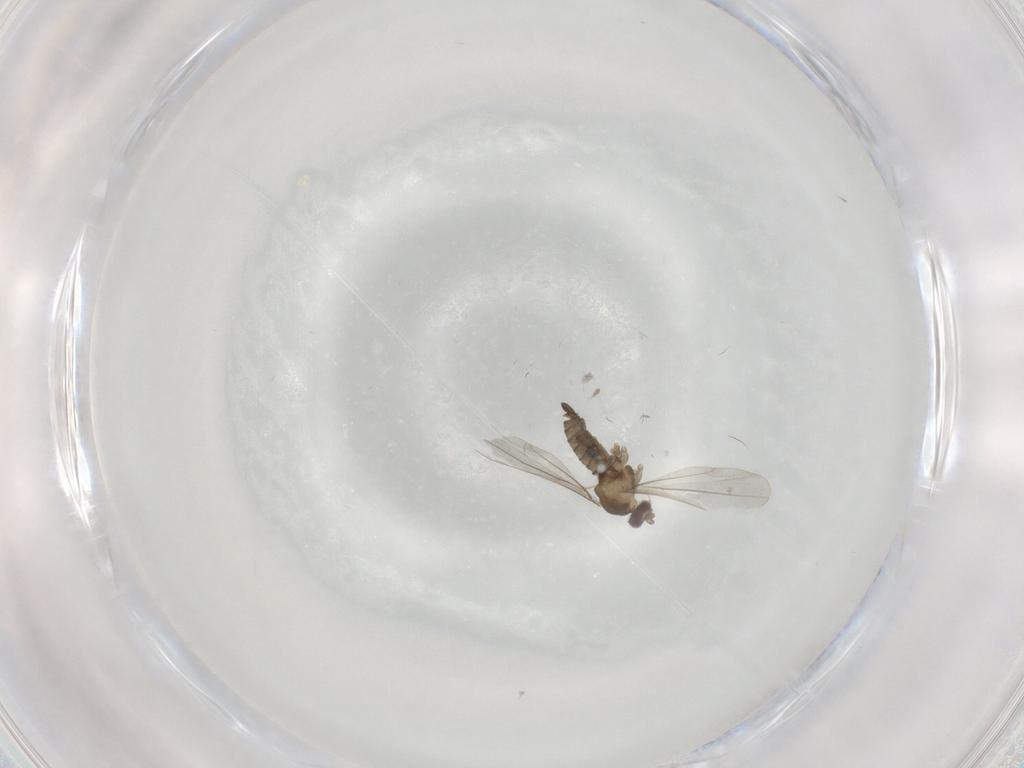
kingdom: Animalia
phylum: Arthropoda
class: Insecta
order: Diptera
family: Cecidomyiidae
